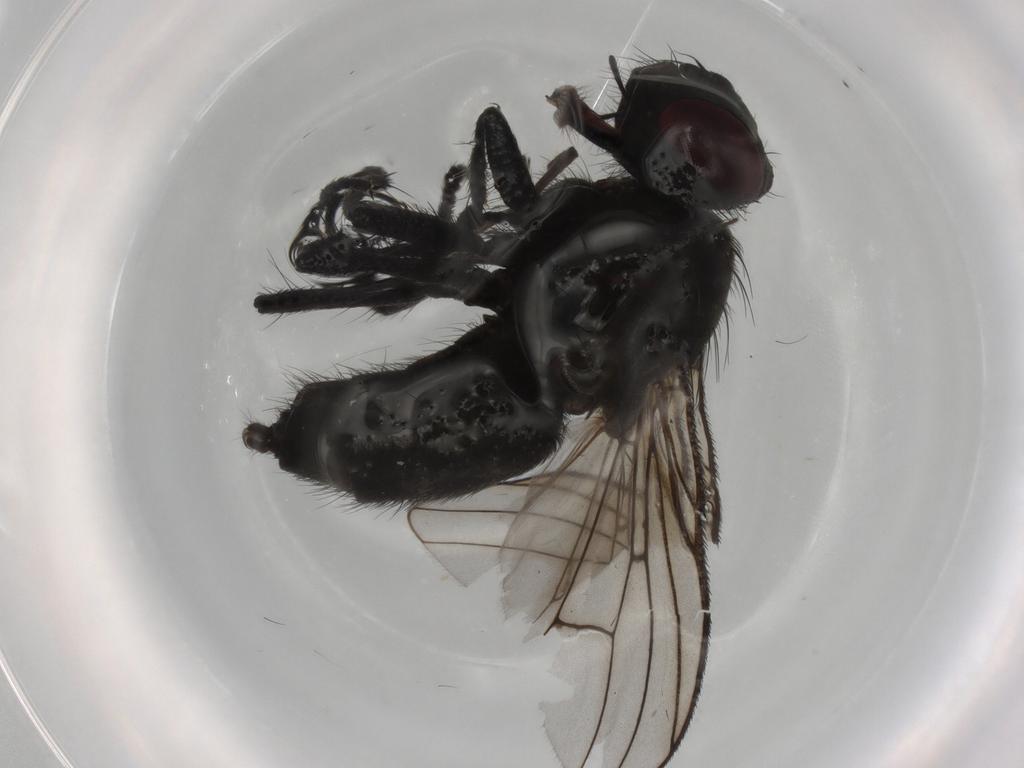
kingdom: Animalia
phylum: Arthropoda
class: Insecta
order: Diptera
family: Muscidae
